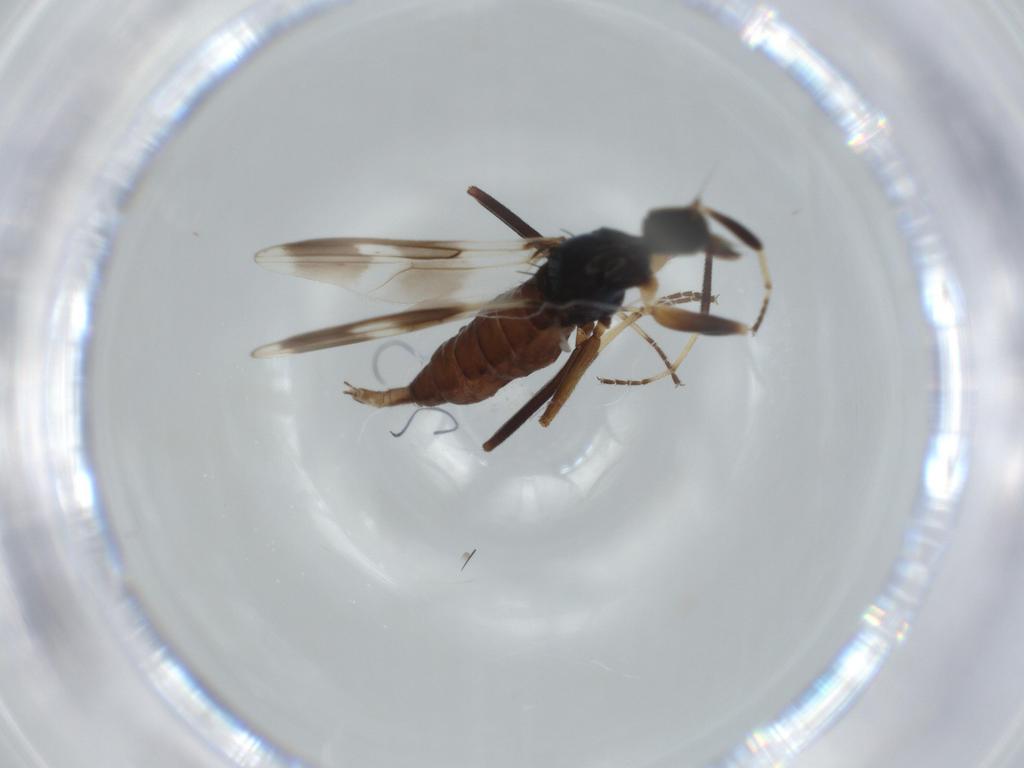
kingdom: Animalia
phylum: Arthropoda
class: Insecta
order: Diptera
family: Hybotidae
